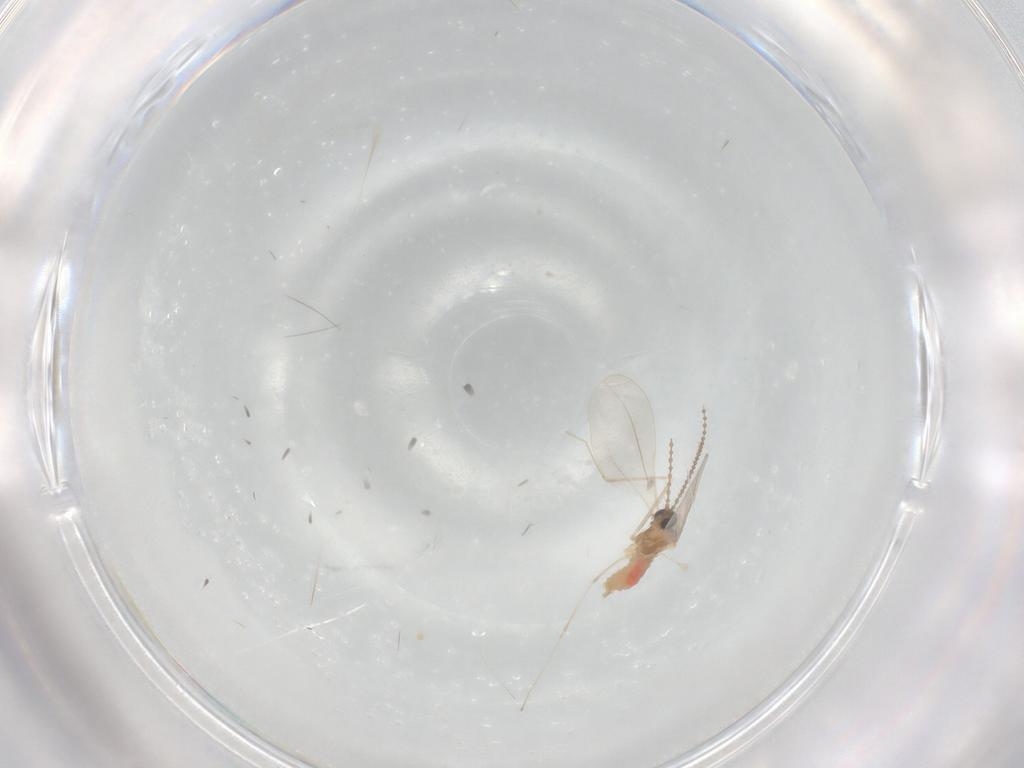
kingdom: Animalia
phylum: Arthropoda
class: Insecta
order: Diptera
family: Cecidomyiidae
